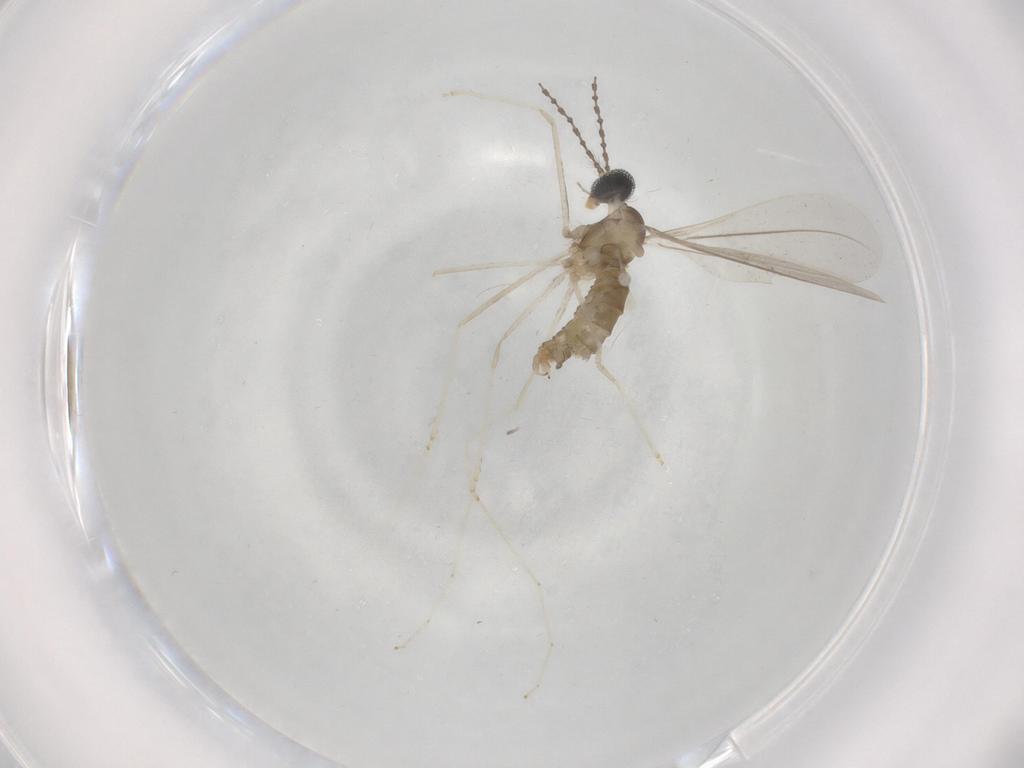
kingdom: Animalia
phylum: Arthropoda
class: Insecta
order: Diptera
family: Cecidomyiidae
